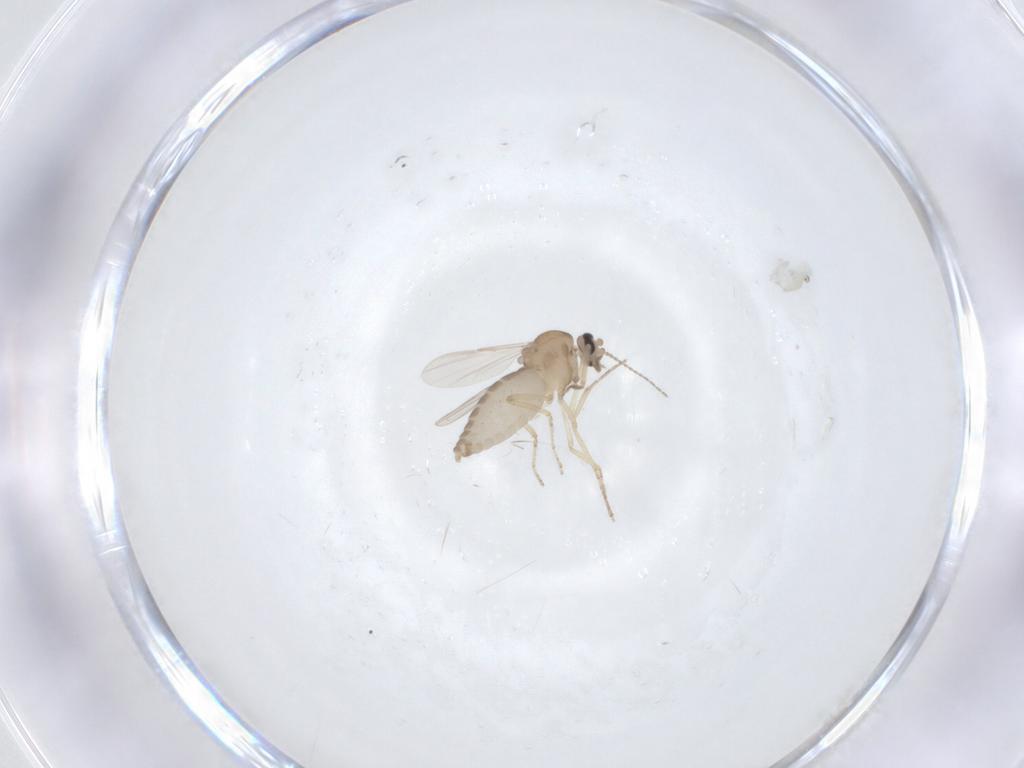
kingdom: Animalia
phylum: Arthropoda
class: Insecta
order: Diptera
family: Ceratopogonidae
